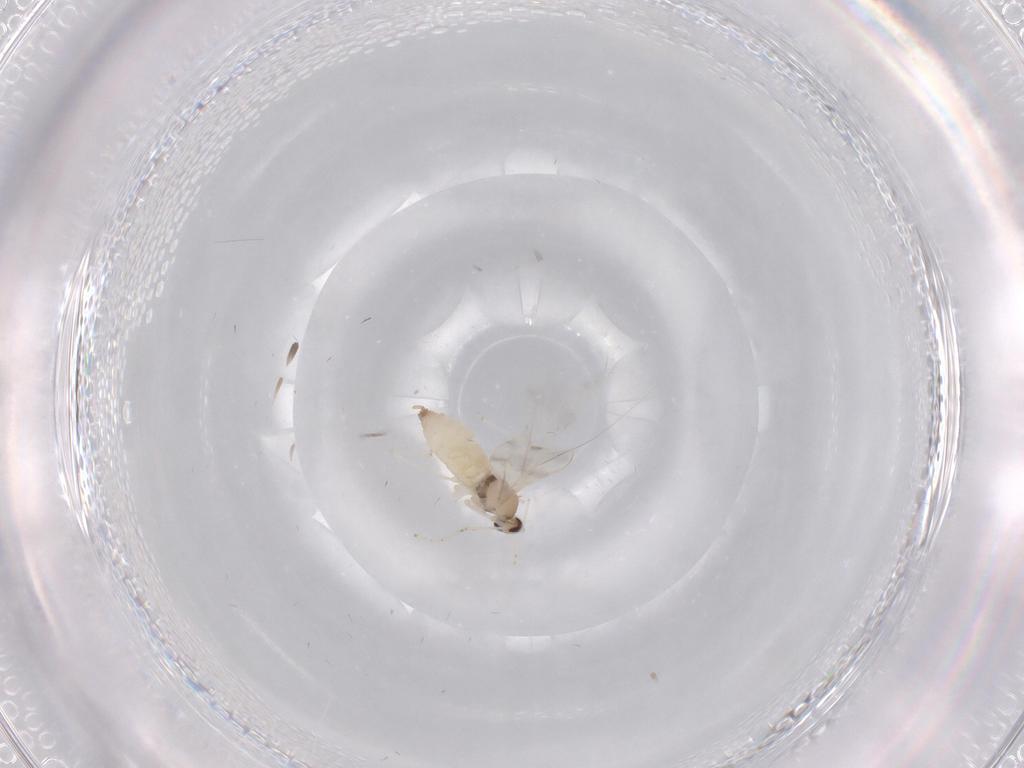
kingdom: Animalia
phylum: Arthropoda
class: Insecta
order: Diptera
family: Cecidomyiidae
